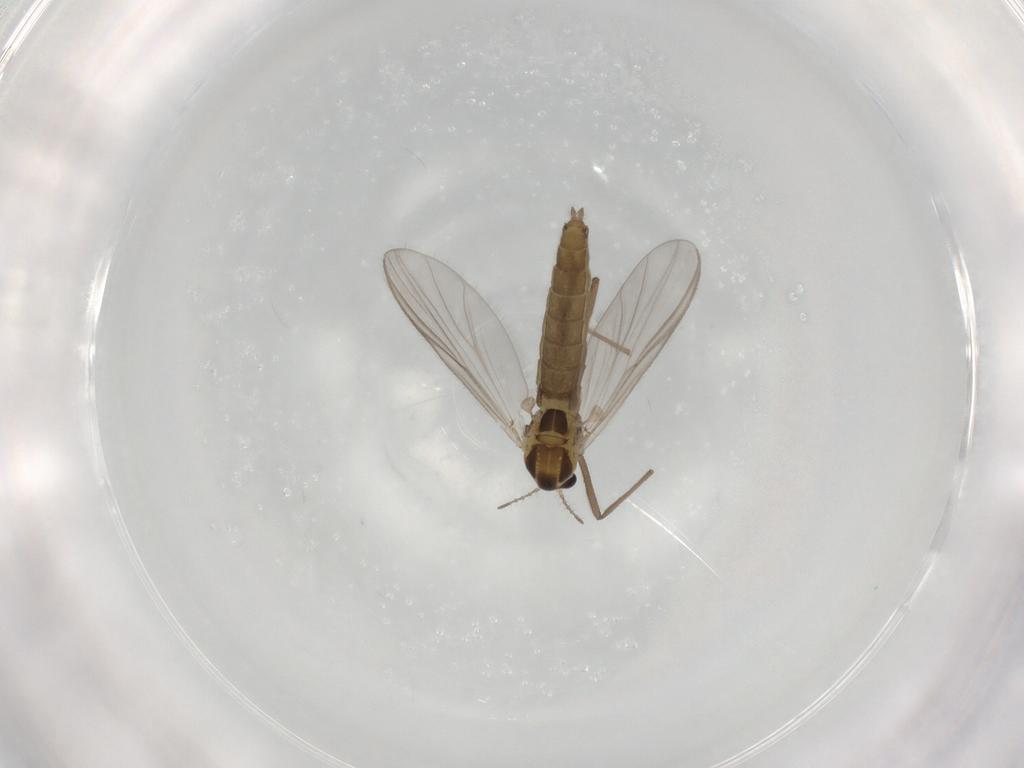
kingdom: Animalia
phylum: Arthropoda
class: Insecta
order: Diptera
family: Chironomidae
